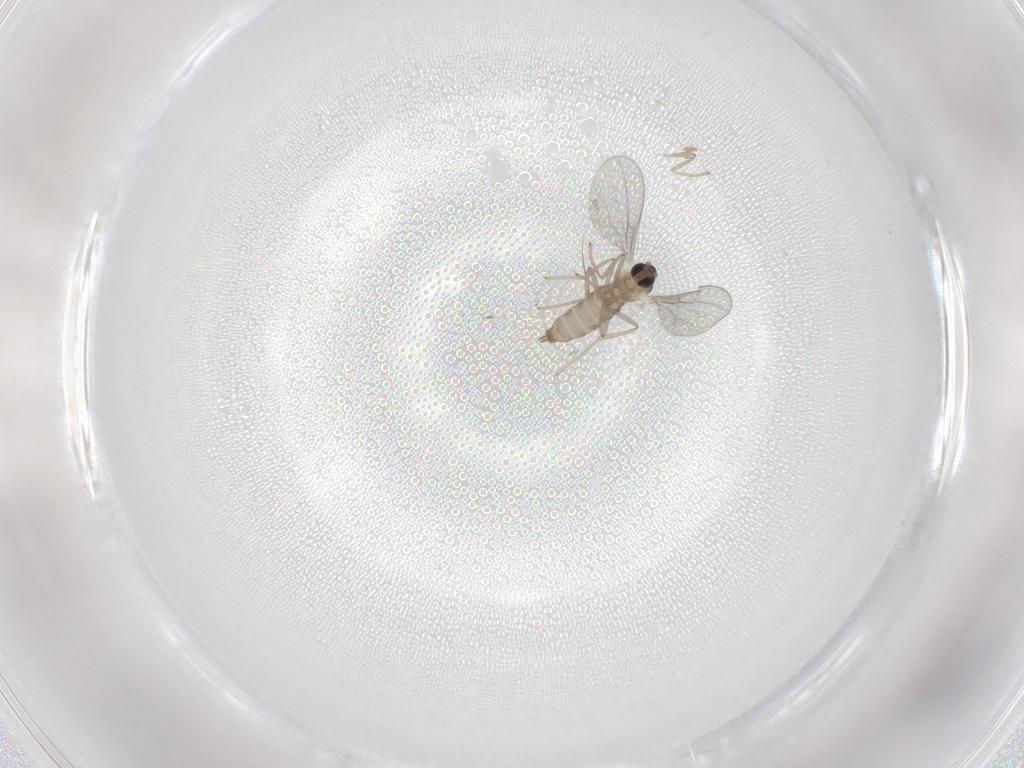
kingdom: Animalia
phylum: Arthropoda
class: Insecta
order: Diptera
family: Cecidomyiidae
